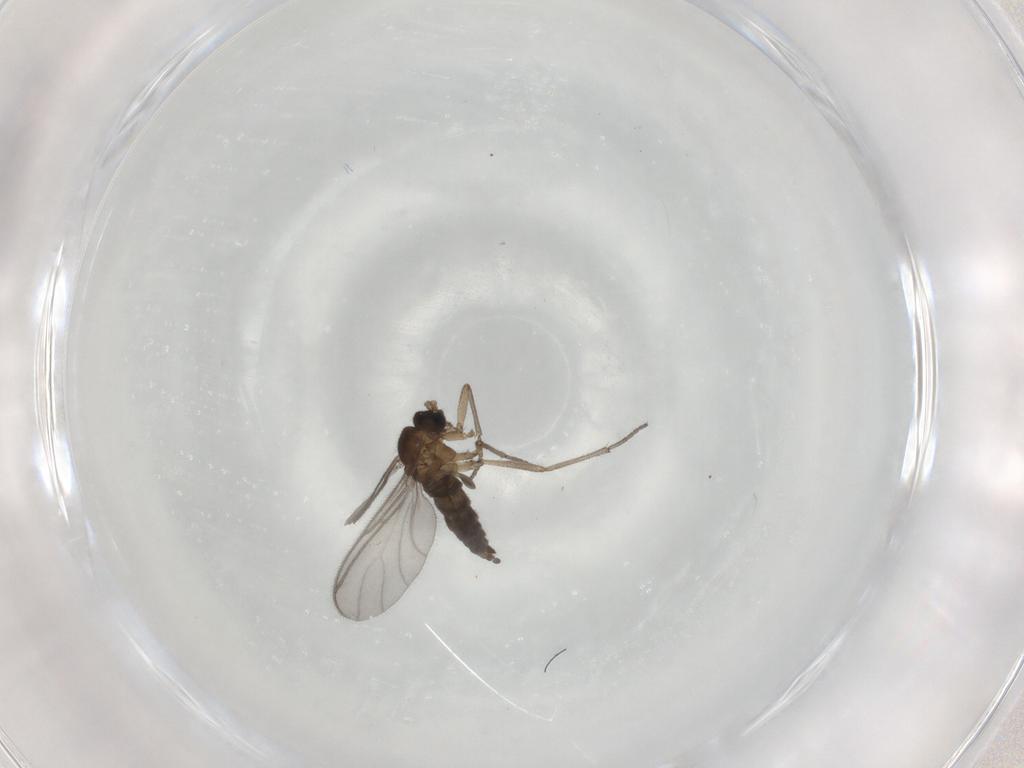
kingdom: Animalia
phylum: Arthropoda
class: Insecta
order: Diptera
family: Sciaridae
